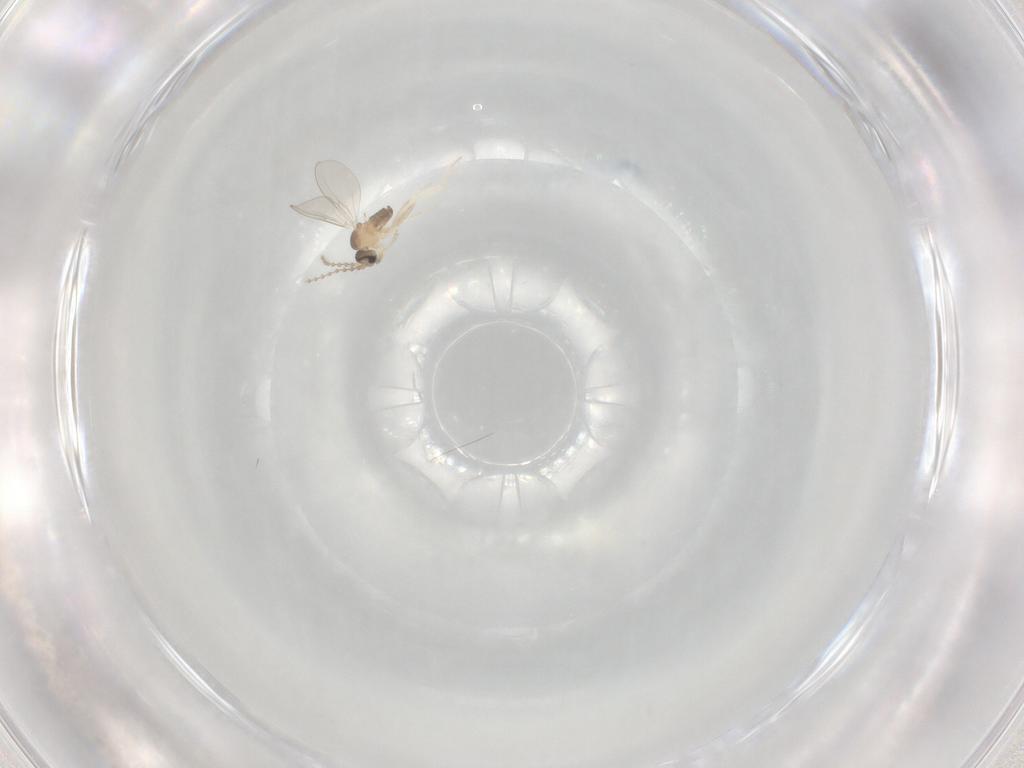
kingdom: Animalia
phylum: Arthropoda
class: Insecta
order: Diptera
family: Cecidomyiidae
